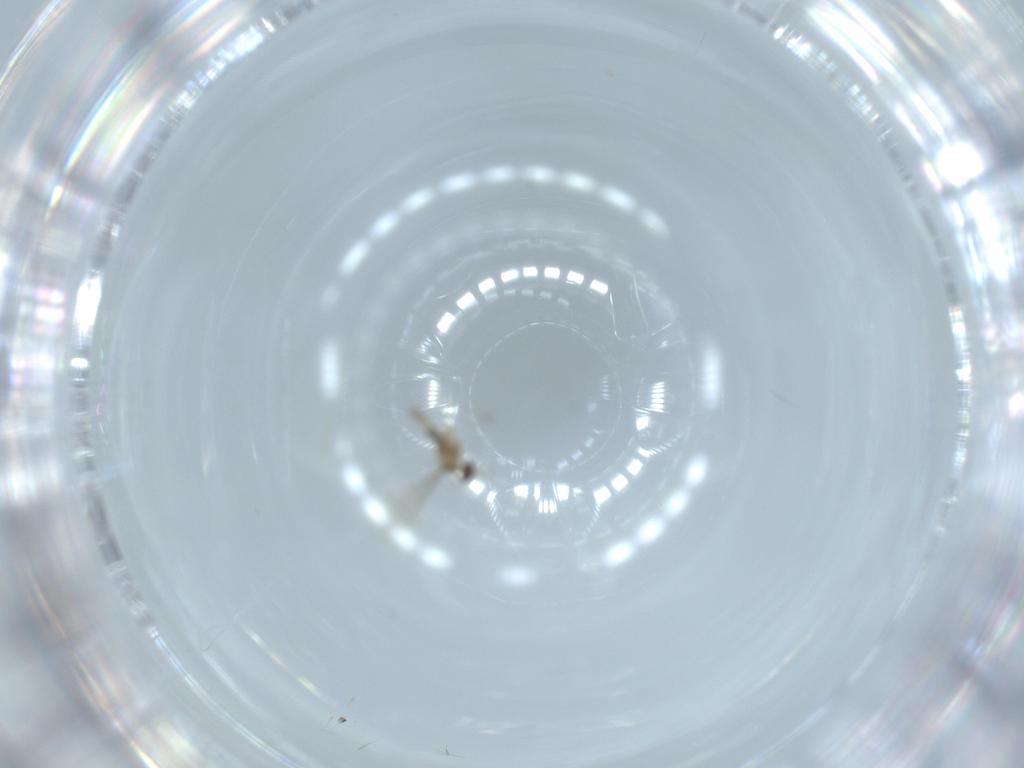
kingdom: Animalia
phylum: Arthropoda
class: Insecta
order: Diptera
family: Limoniidae
